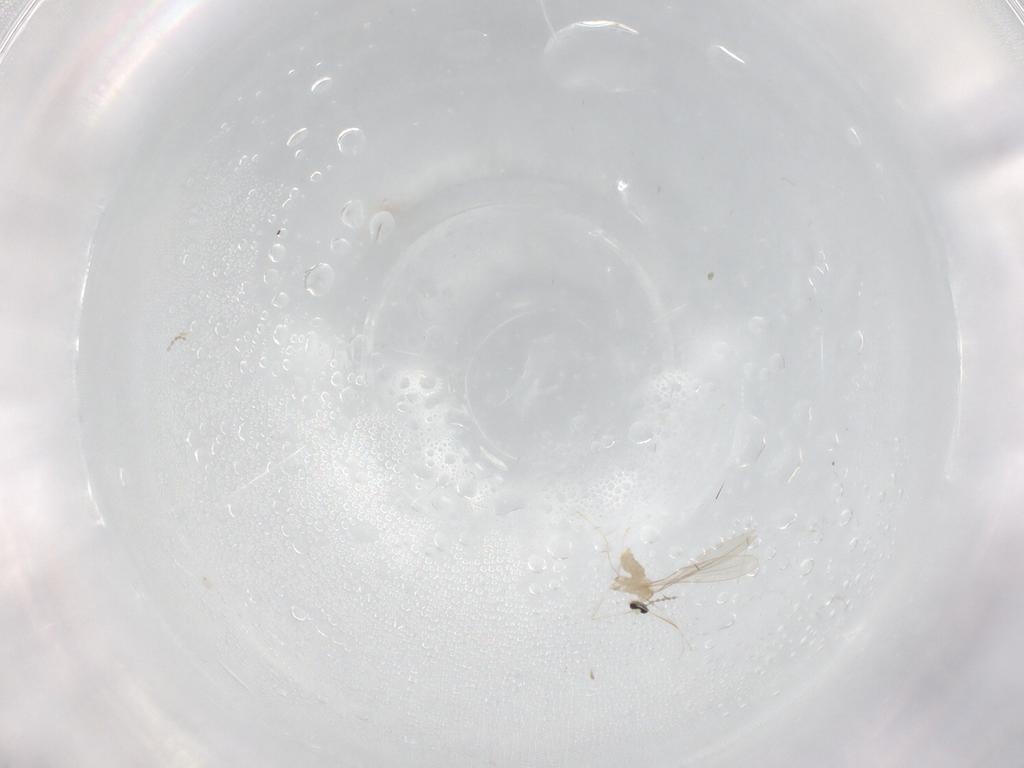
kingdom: Animalia
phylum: Arthropoda
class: Insecta
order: Diptera
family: Cecidomyiidae
